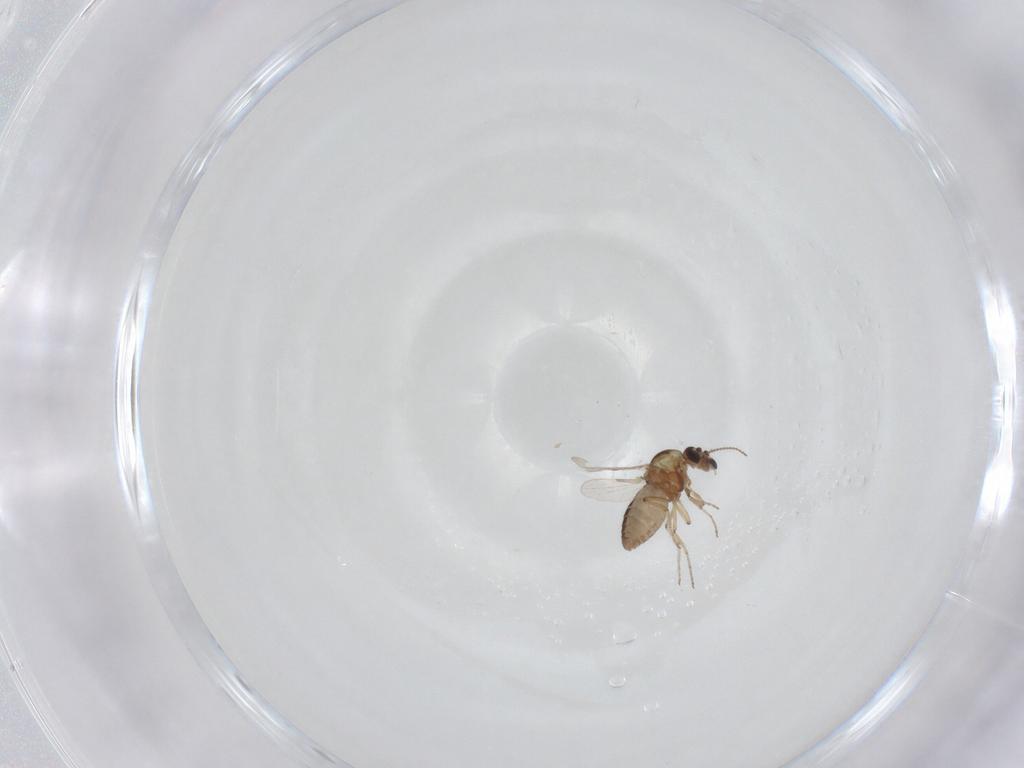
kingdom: Animalia
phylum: Arthropoda
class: Insecta
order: Diptera
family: Ceratopogonidae
